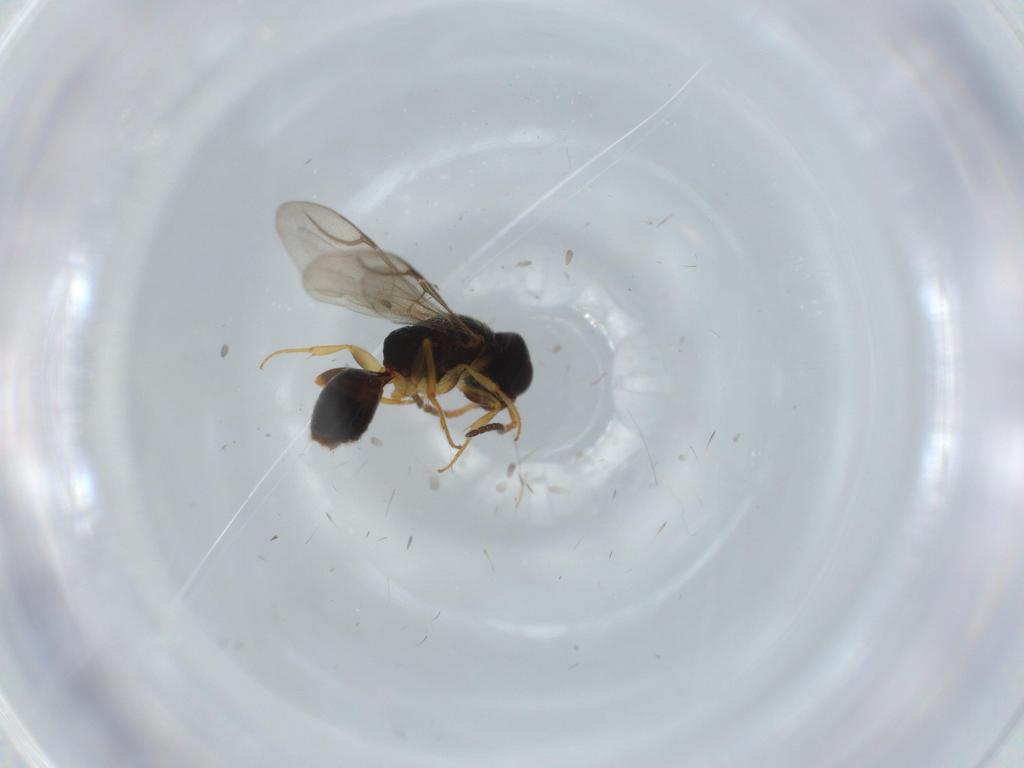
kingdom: Animalia
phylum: Arthropoda
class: Insecta
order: Hymenoptera
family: Bethylidae
